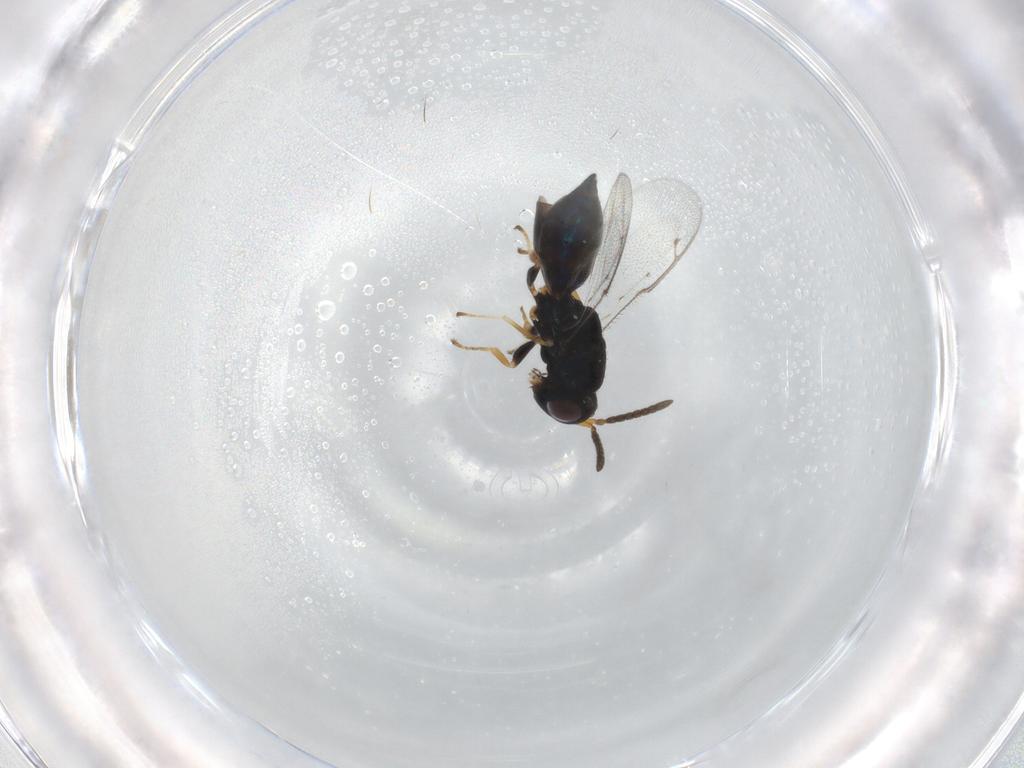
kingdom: Animalia
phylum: Arthropoda
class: Insecta
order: Hymenoptera
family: Pteromalidae
